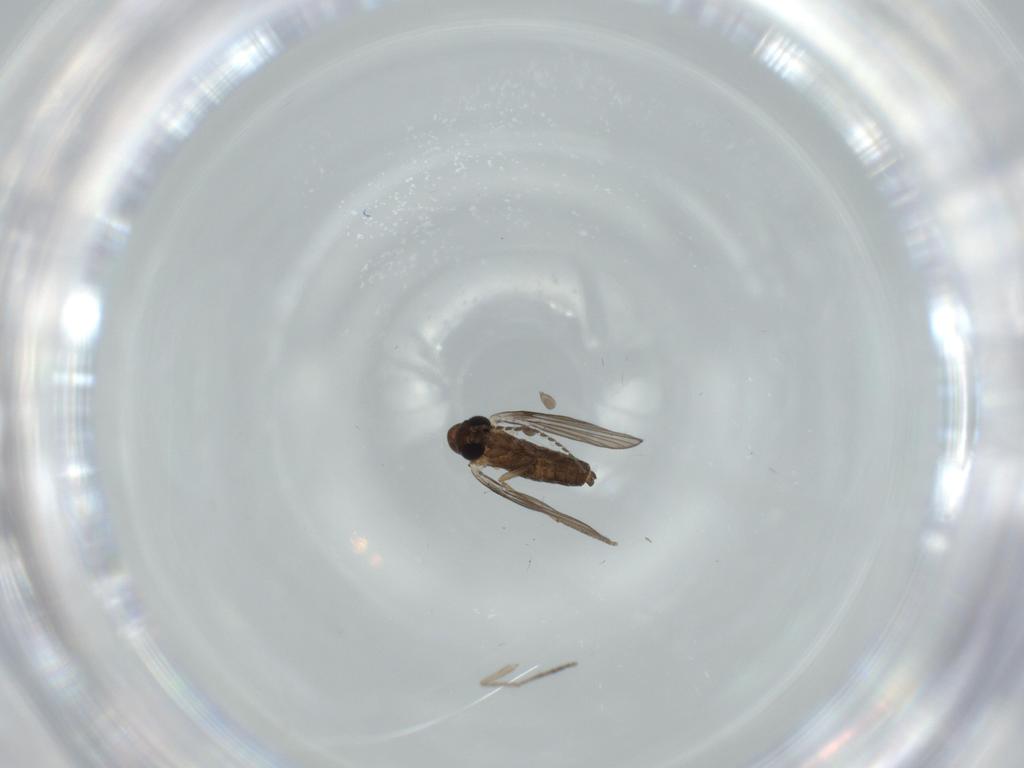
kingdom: Animalia
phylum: Arthropoda
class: Insecta
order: Diptera
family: Psychodidae
